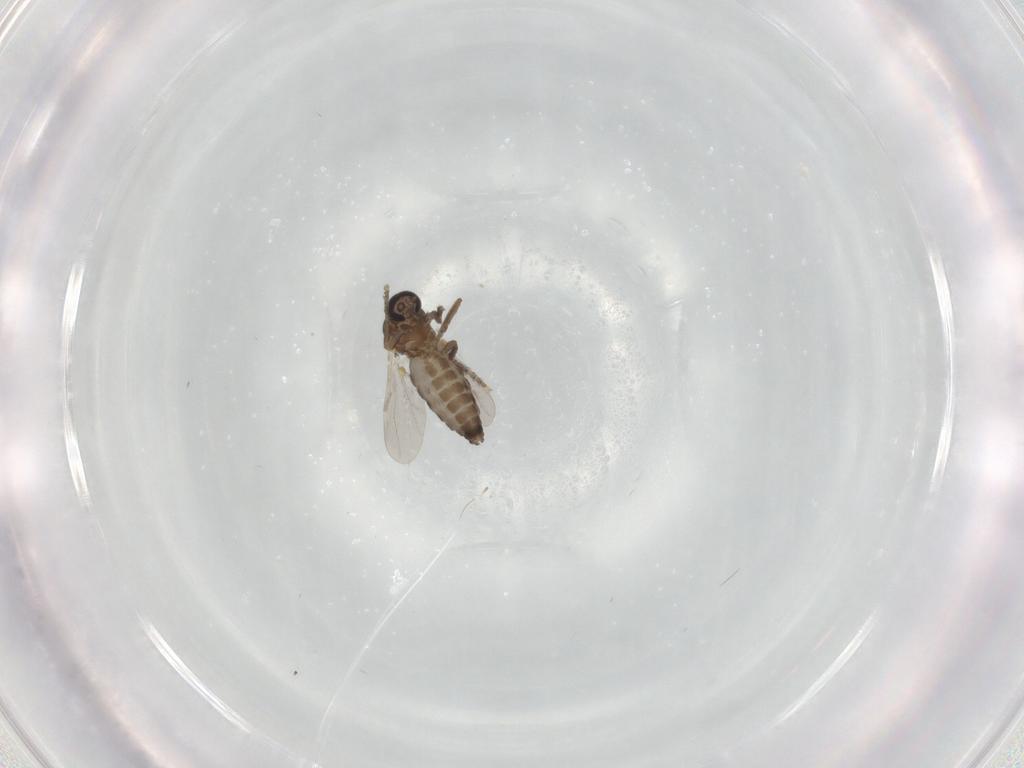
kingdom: Animalia
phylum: Arthropoda
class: Insecta
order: Diptera
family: Ceratopogonidae
